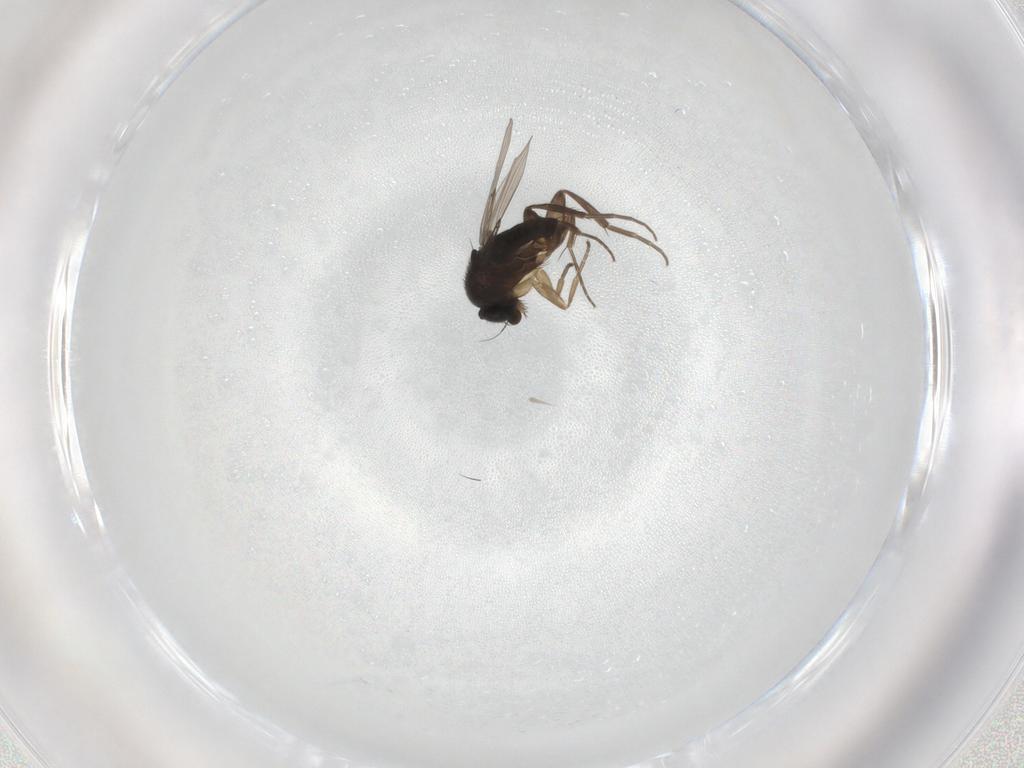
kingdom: Animalia
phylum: Arthropoda
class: Insecta
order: Diptera
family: Phoridae
